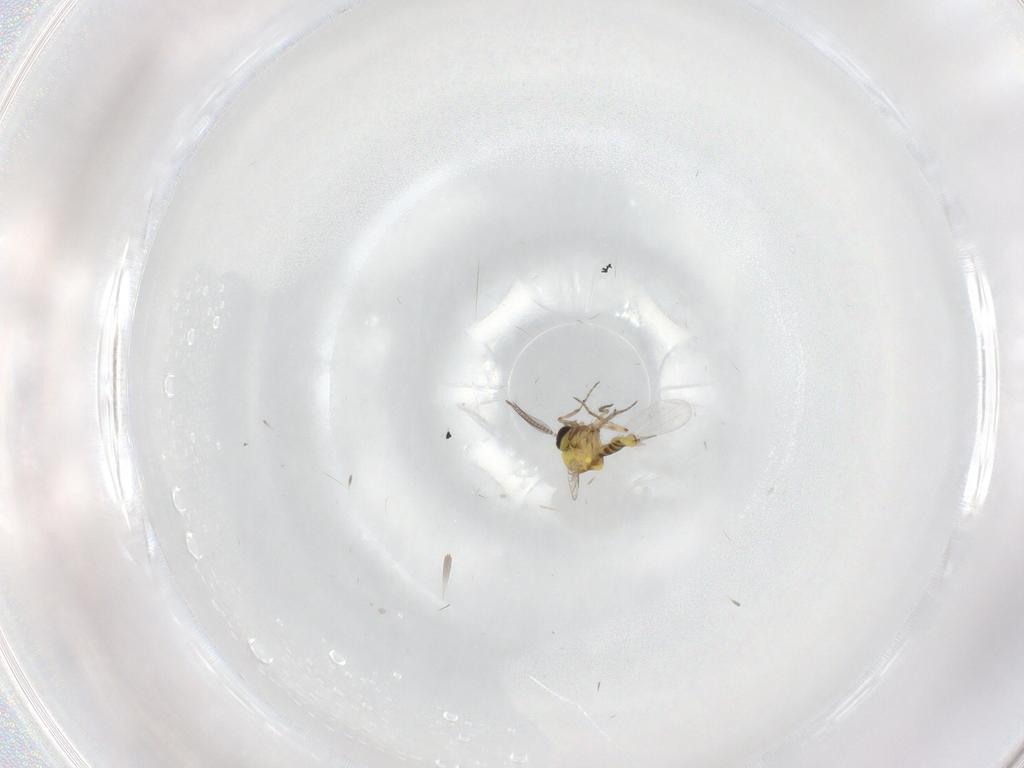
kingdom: Animalia
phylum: Arthropoda
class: Insecta
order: Diptera
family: Ceratopogonidae
